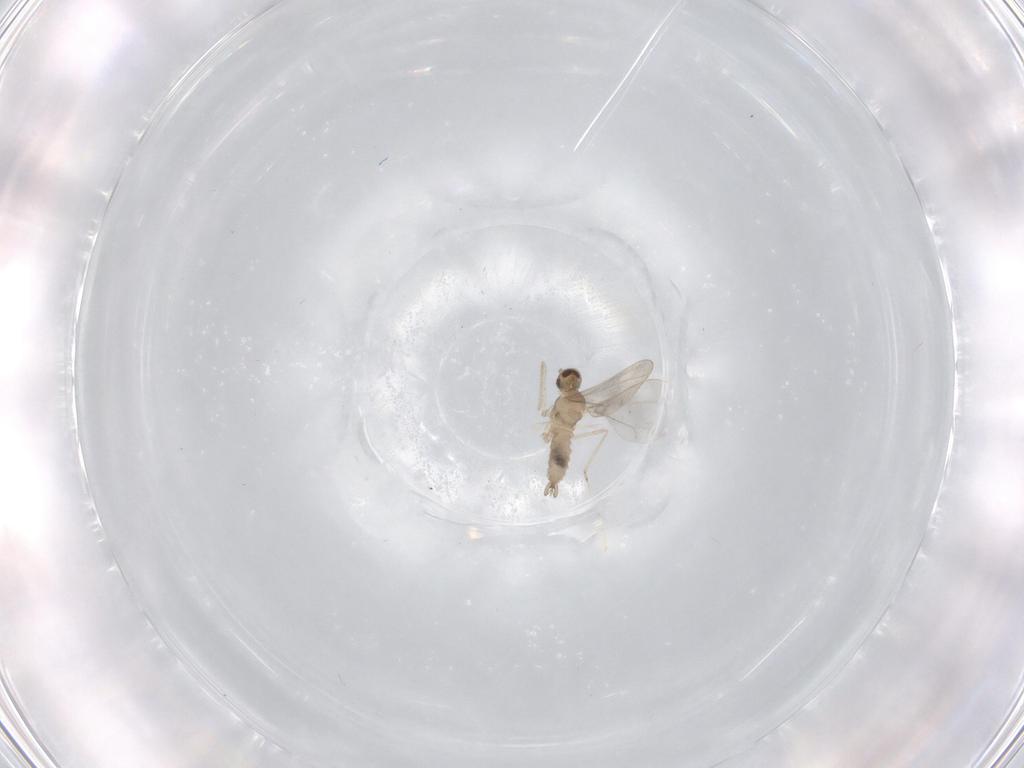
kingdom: Animalia
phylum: Arthropoda
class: Insecta
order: Diptera
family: Cecidomyiidae
